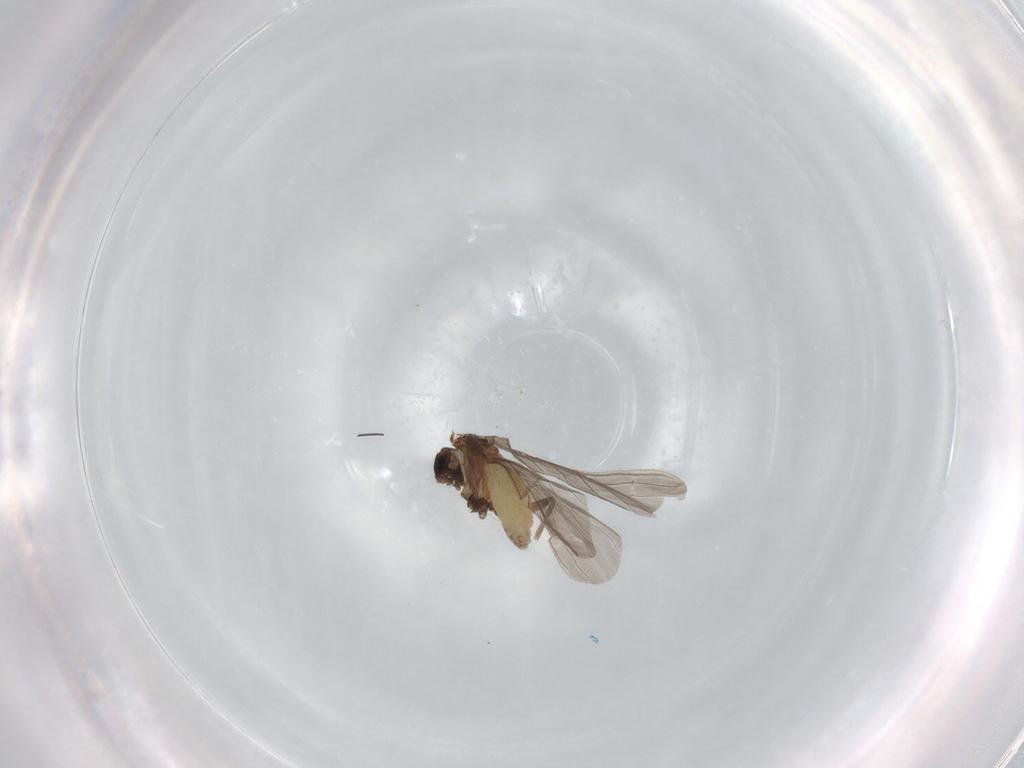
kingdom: Animalia
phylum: Arthropoda
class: Insecta
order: Neuroptera
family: Coniopterygidae
